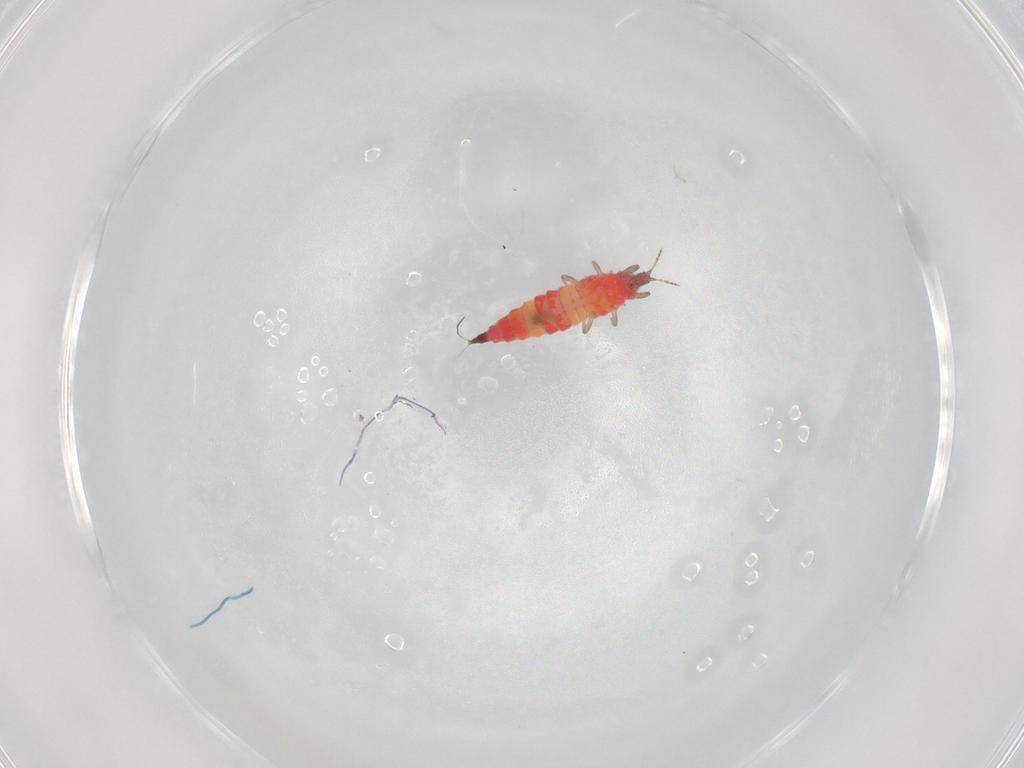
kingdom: Animalia
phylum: Arthropoda
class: Insecta
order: Thysanoptera
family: Phlaeothripidae
